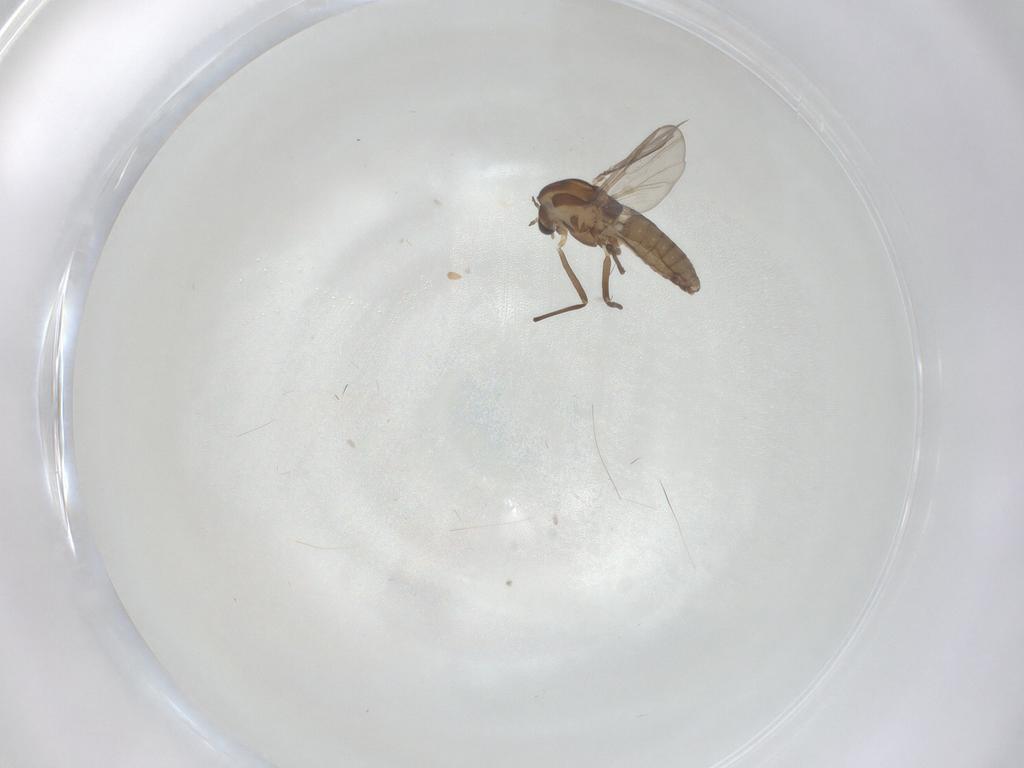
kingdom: Animalia
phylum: Arthropoda
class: Insecta
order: Diptera
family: Chironomidae
